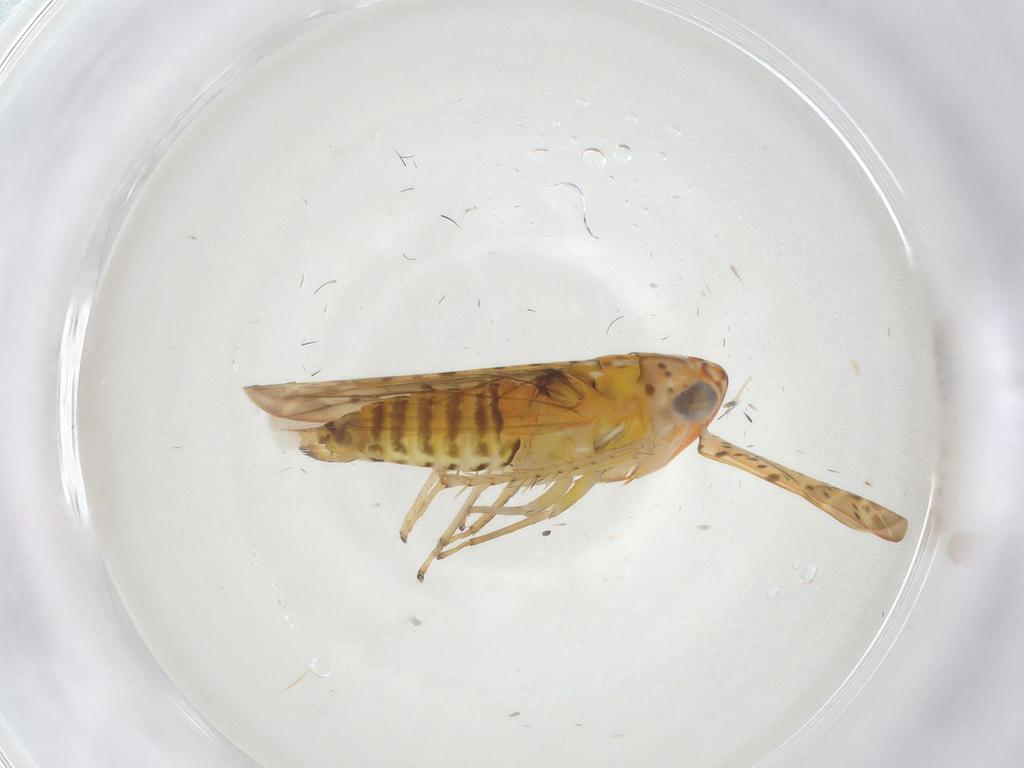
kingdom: Animalia
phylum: Arthropoda
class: Insecta
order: Hemiptera
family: Cicadellidae
